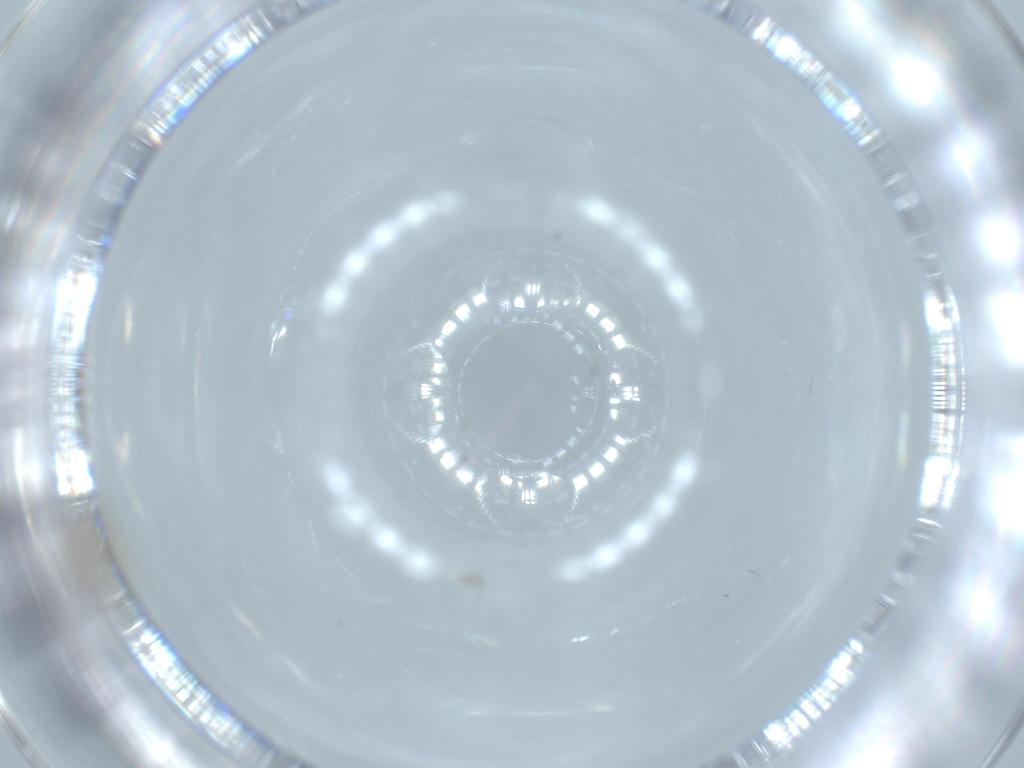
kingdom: Animalia
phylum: Arthropoda
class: Insecta
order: Diptera
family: Cecidomyiidae
